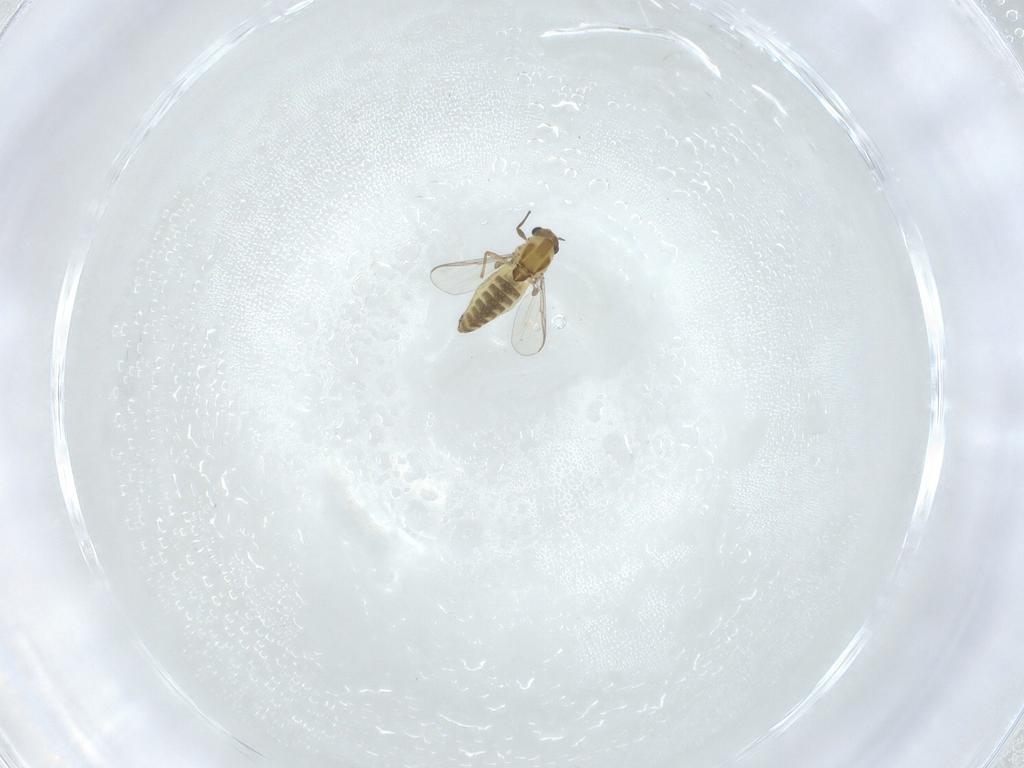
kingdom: Animalia
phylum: Arthropoda
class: Insecta
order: Diptera
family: Chironomidae
